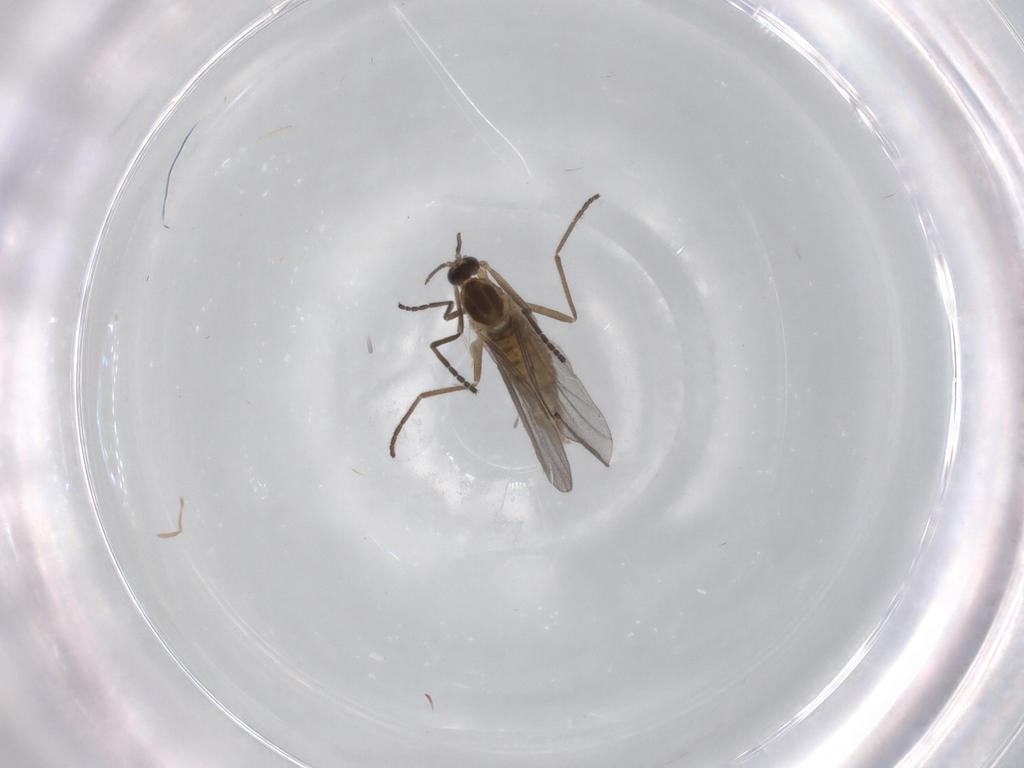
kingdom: Animalia
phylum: Arthropoda
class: Insecta
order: Diptera
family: Cecidomyiidae
